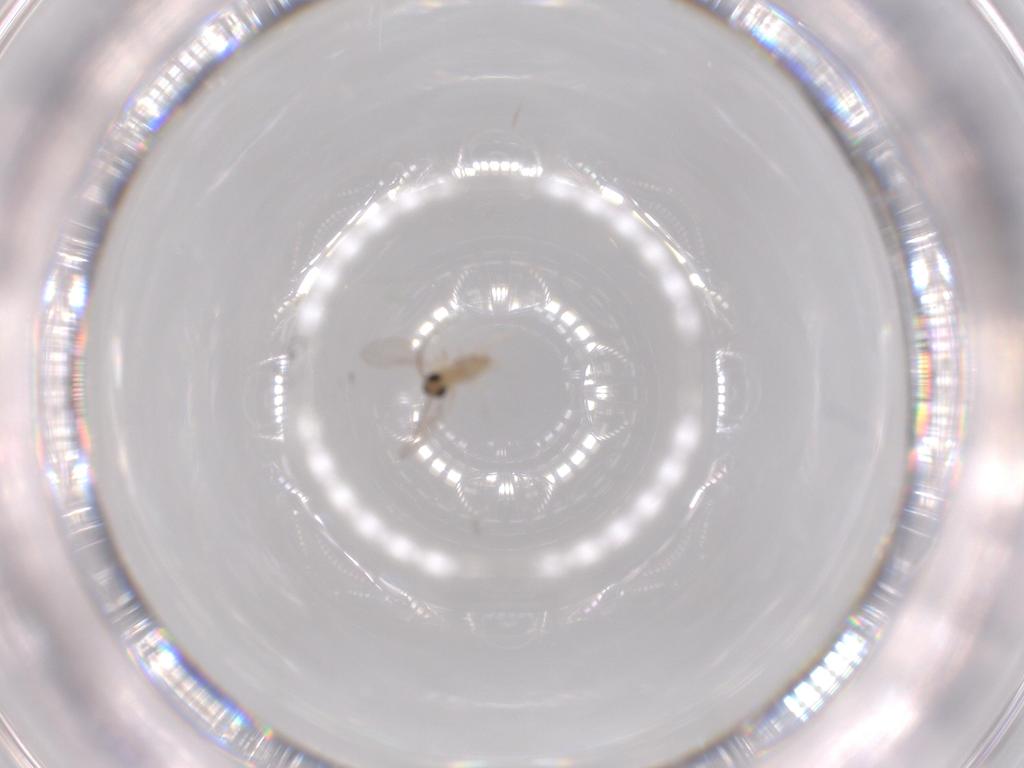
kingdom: Animalia
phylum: Arthropoda
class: Insecta
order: Diptera
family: Cecidomyiidae
